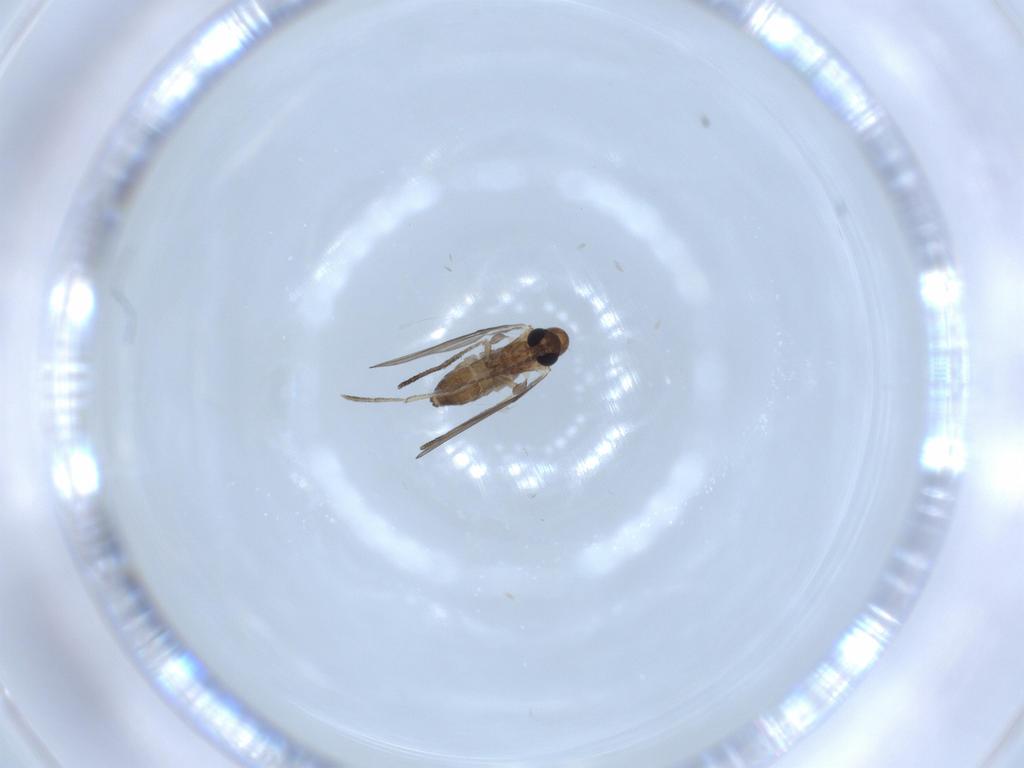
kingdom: Animalia
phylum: Arthropoda
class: Insecta
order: Diptera
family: Psychodidae
